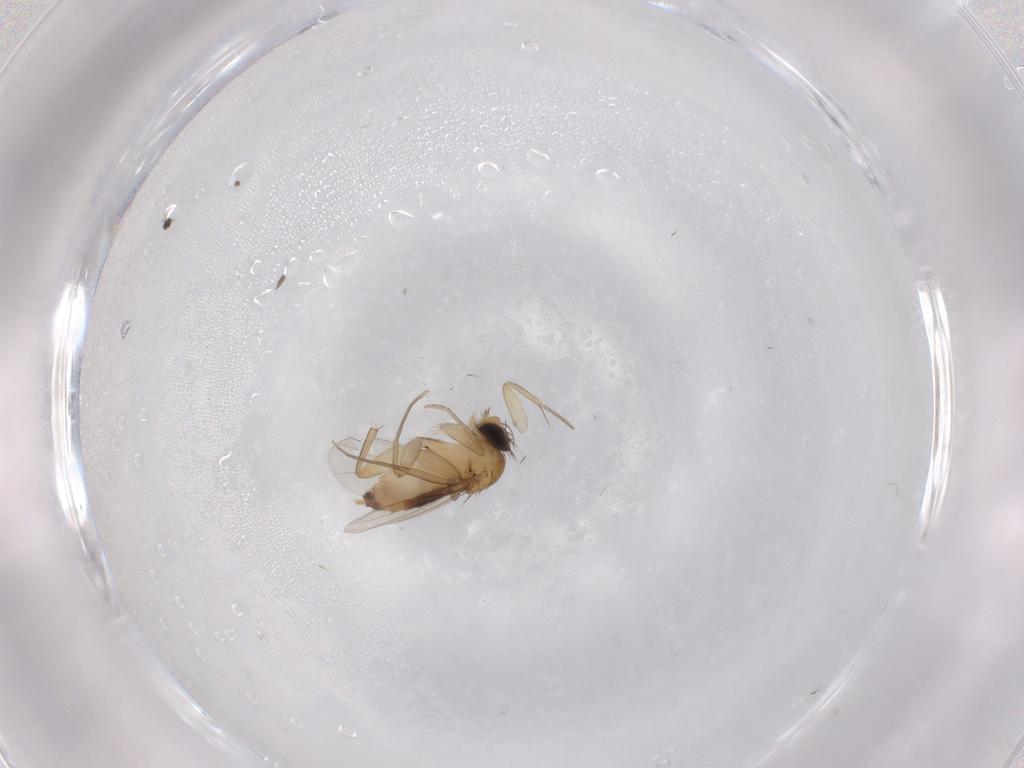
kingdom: Animalia
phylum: Arthropoda
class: Insecta
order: Diptera
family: Phoridae
